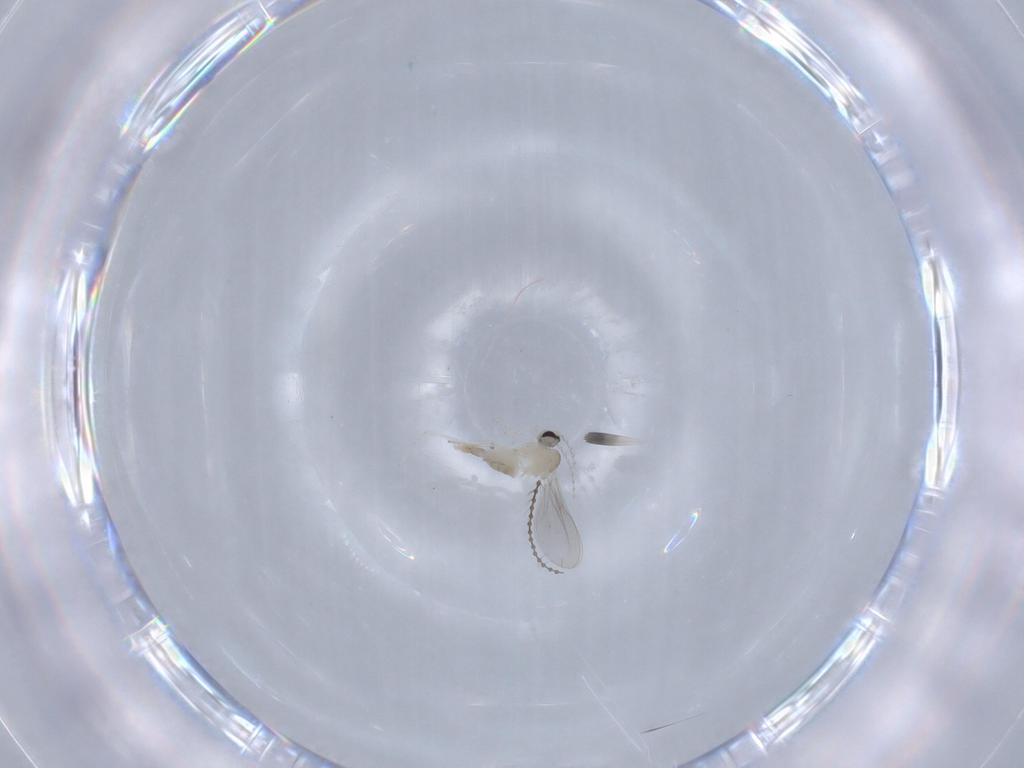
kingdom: Animalia
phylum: Arthropoda
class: Insecta
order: Diptera
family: Cecidomyiidae
